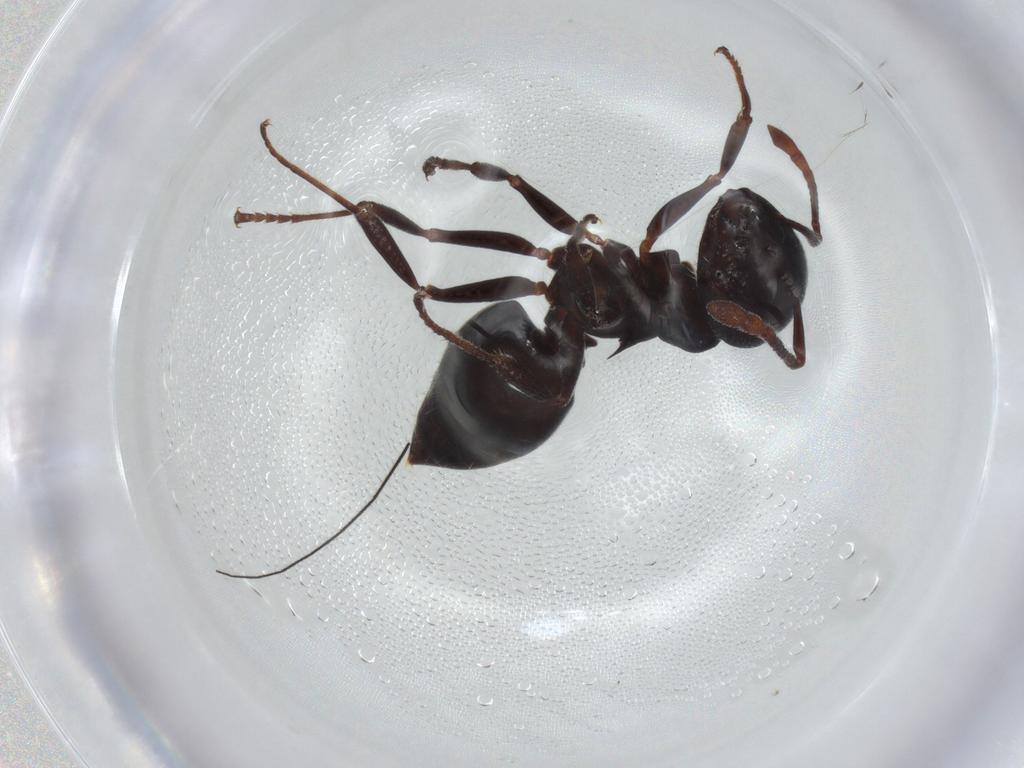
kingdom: Animalia
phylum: Arthropoda
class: Insecta
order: Hymenoptera
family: Formicidae
